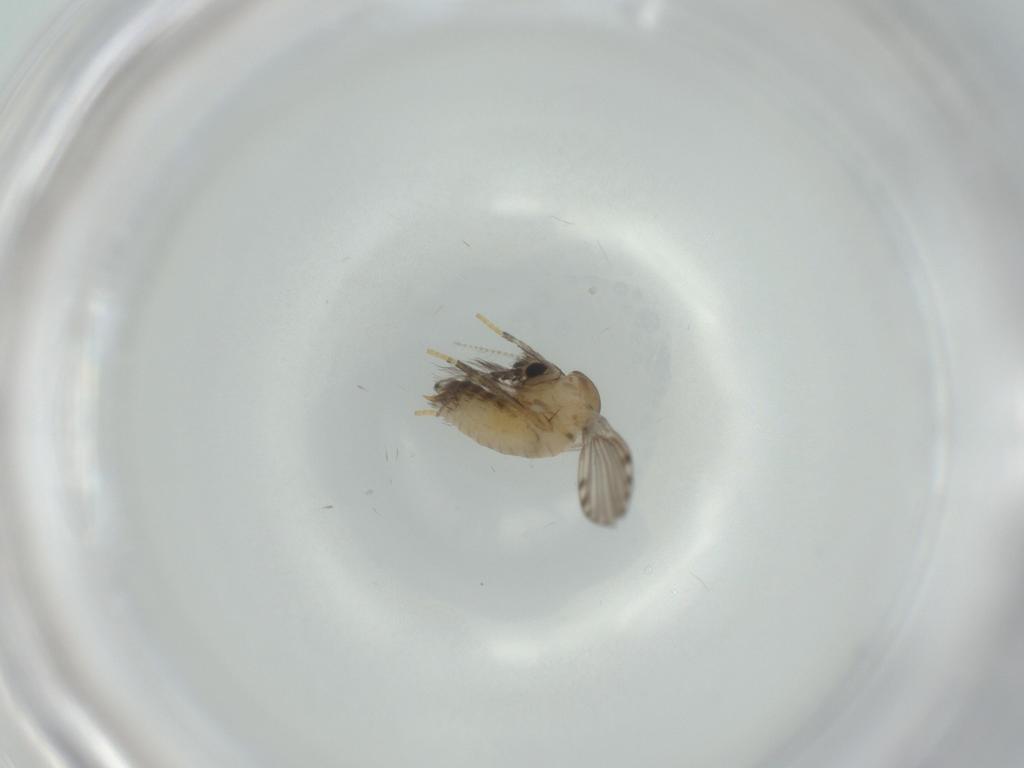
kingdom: Animalia
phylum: Arthropoda
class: Insecta
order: Diptera
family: Psychodidae
